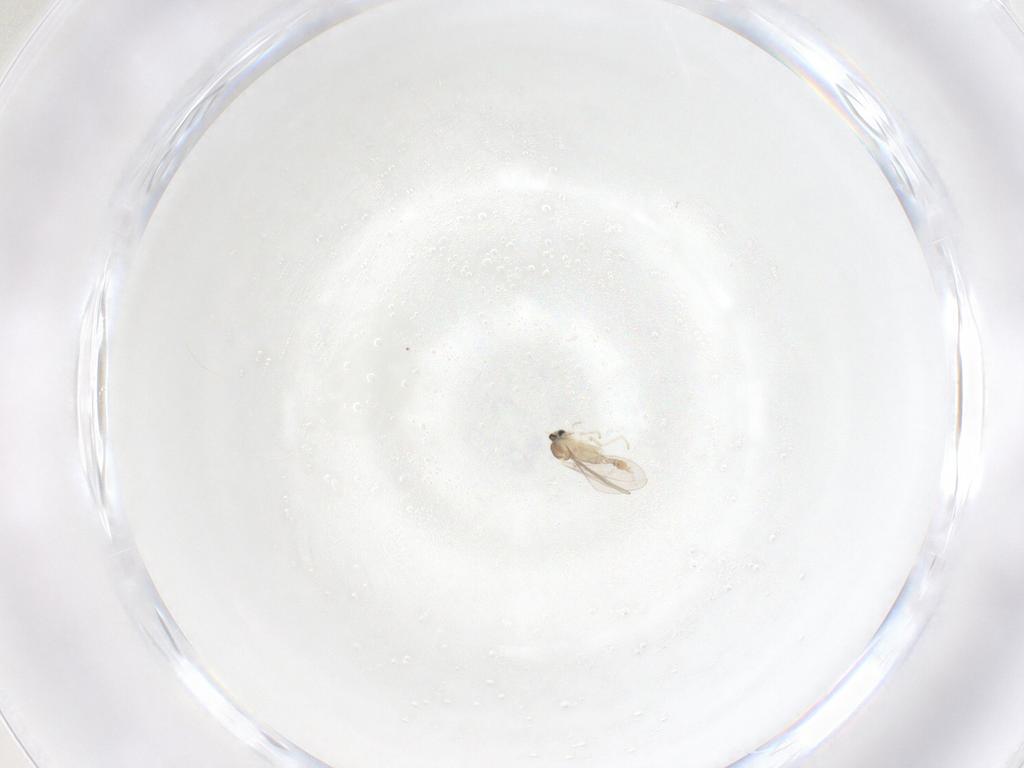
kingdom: Animalia
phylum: Arthropoda
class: Insecta
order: Diptera
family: Cecidomyiidae
